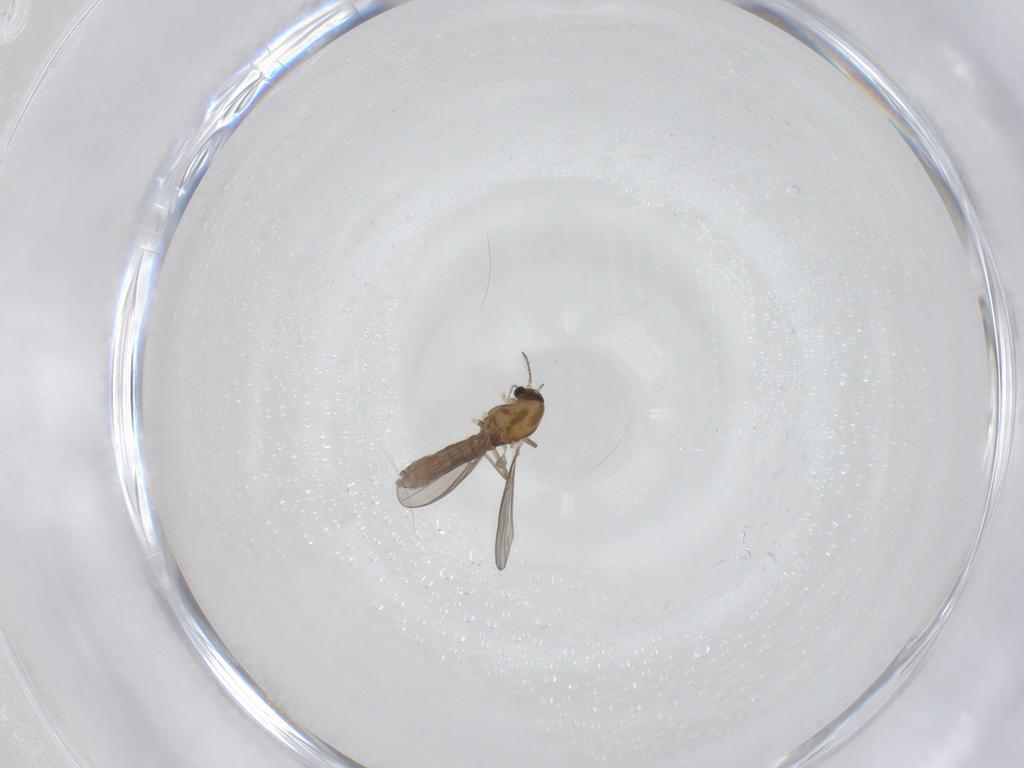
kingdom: Animalia
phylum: Arthropoda
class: Insecta
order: Diptera
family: Chironomidae
